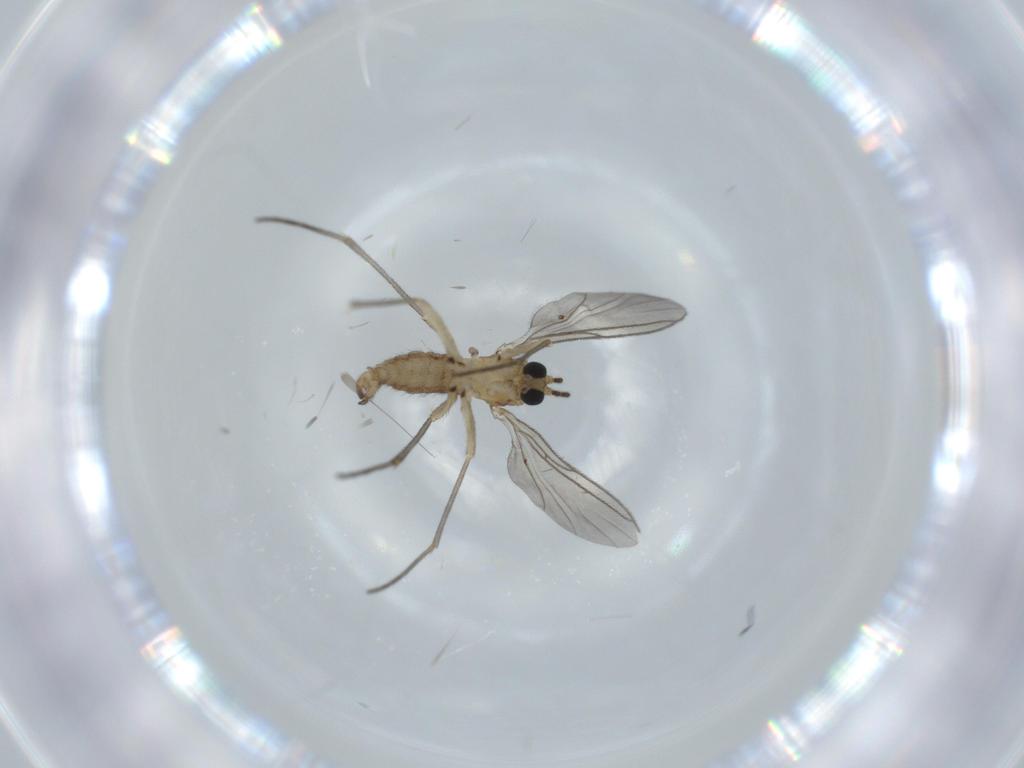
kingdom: Animalia
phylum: Arthropoda
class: Insecta
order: Diptera
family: Sciaridae
